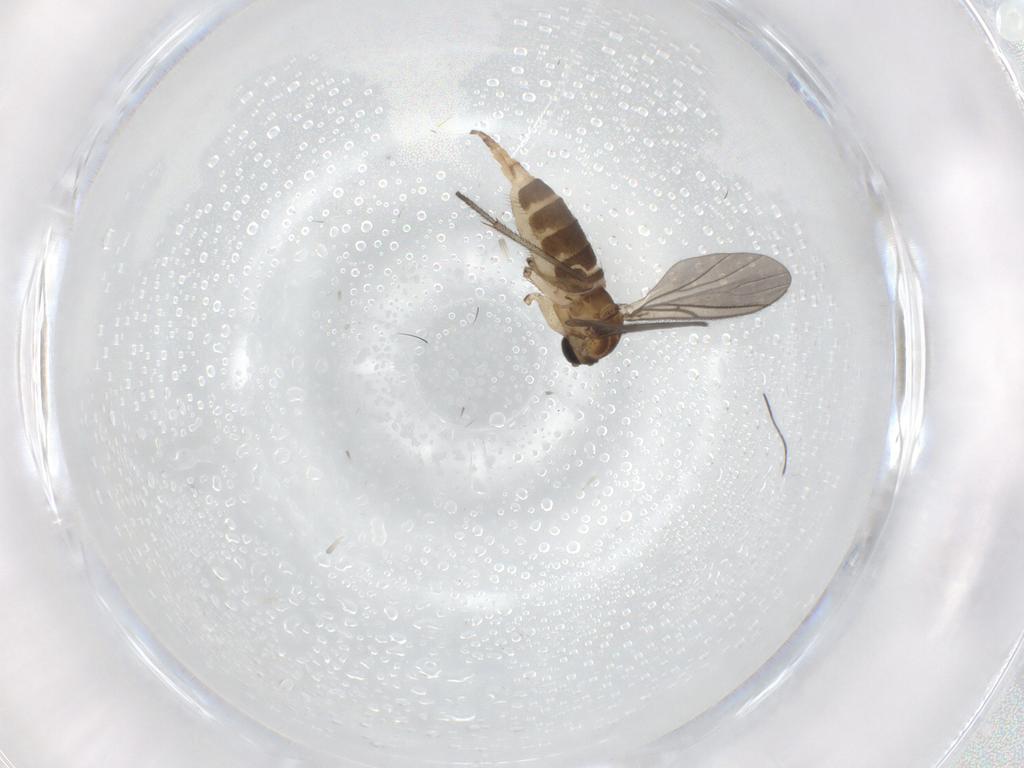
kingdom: Animalia
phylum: Arthropoda
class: Insecta
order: Diptera
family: Sciaridae
